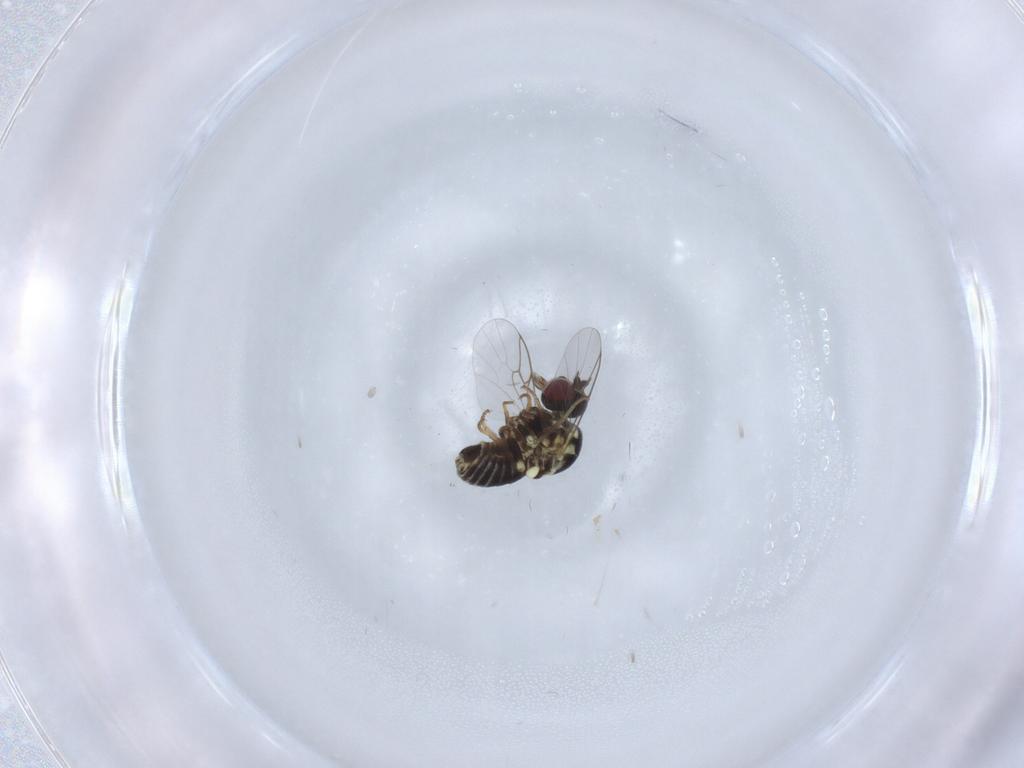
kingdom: Animalia
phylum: Arthropoda
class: Insecta
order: Diptera
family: Mythicomyiidae
